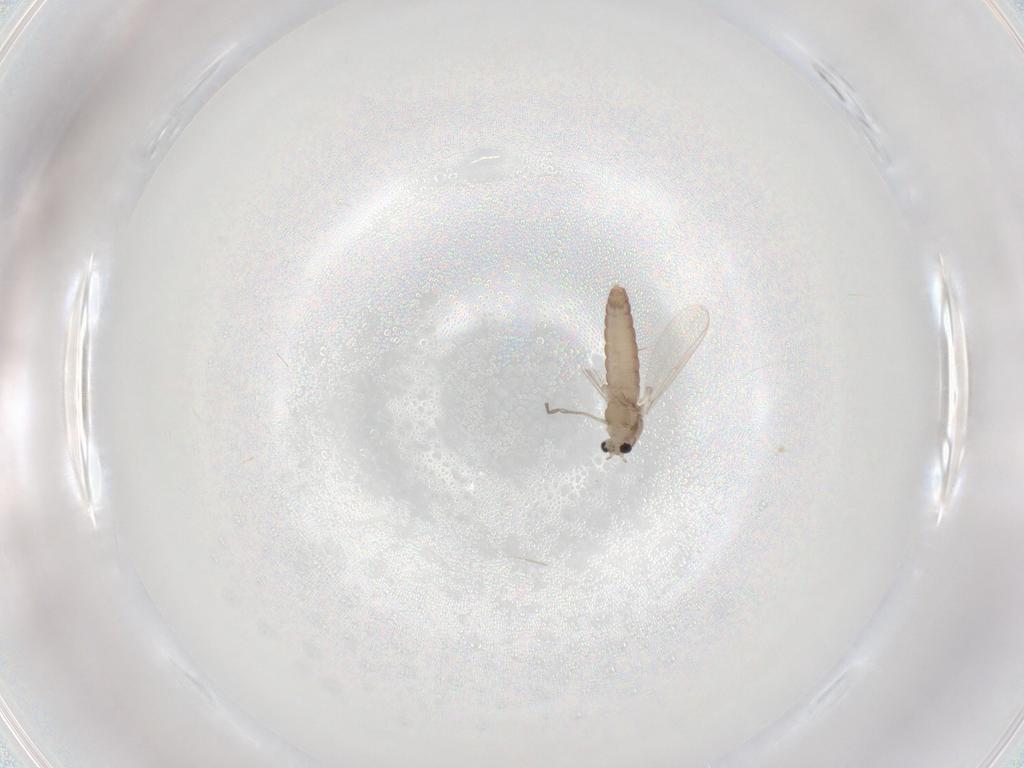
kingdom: Animalia
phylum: Arthropoda
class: Insecta
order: Diptera
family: Chironomidae
